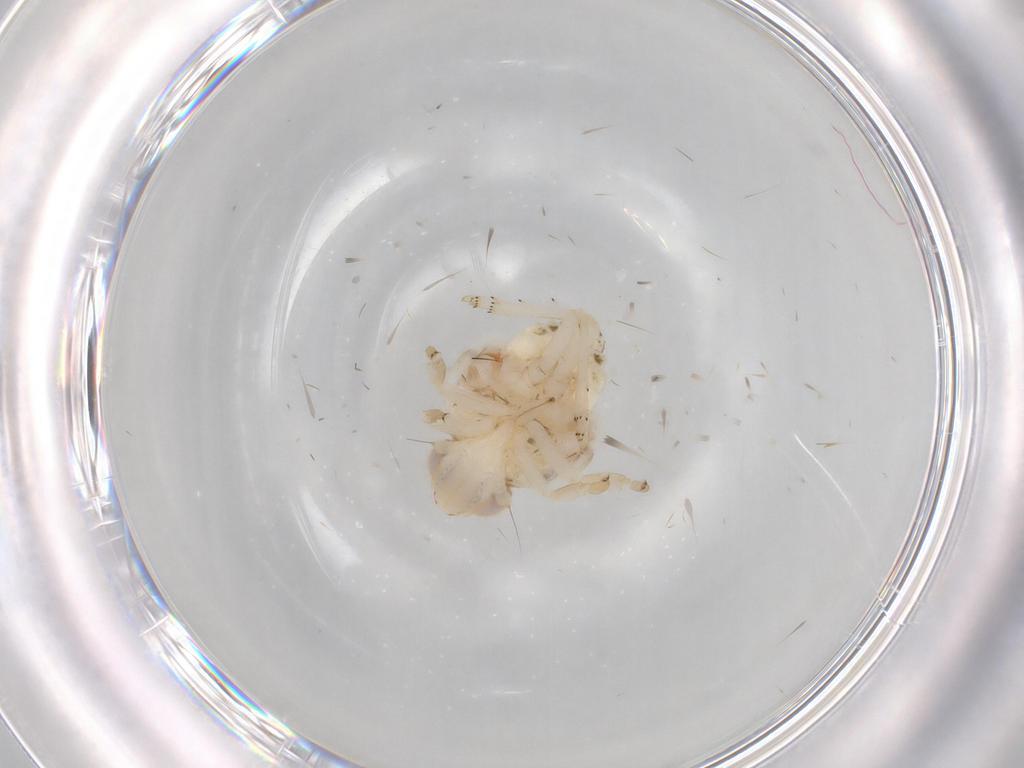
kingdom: Animalia
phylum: Arthropoda
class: Insecta
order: Hemiptera
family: Nogodinidae
